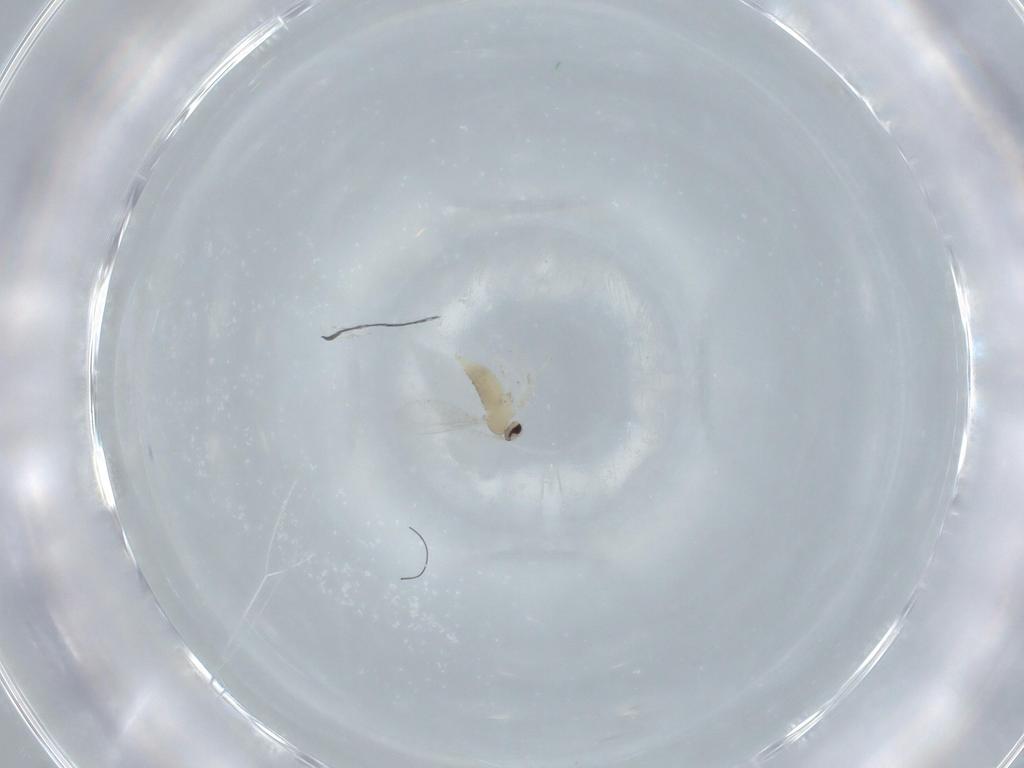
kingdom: Animalia
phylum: Arthropoda
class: Insecta
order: Diptera
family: Cecidomyiidae
